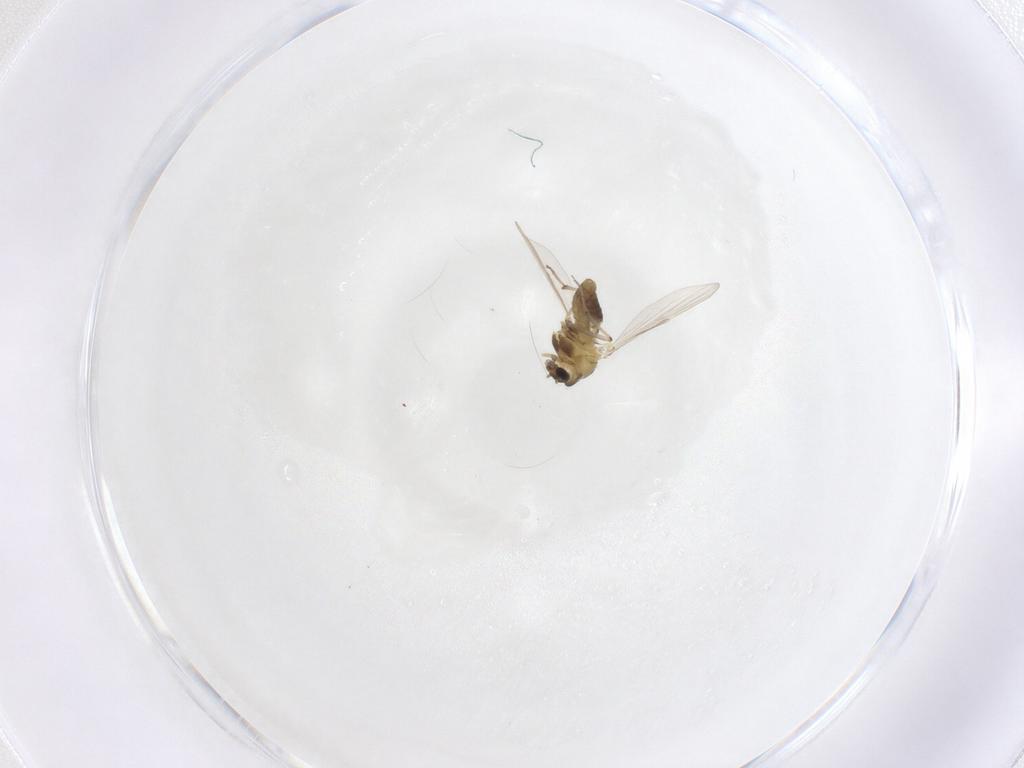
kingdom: Animalia
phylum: Arthropoda
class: Insecta
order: Diptera
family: Chironomidae
